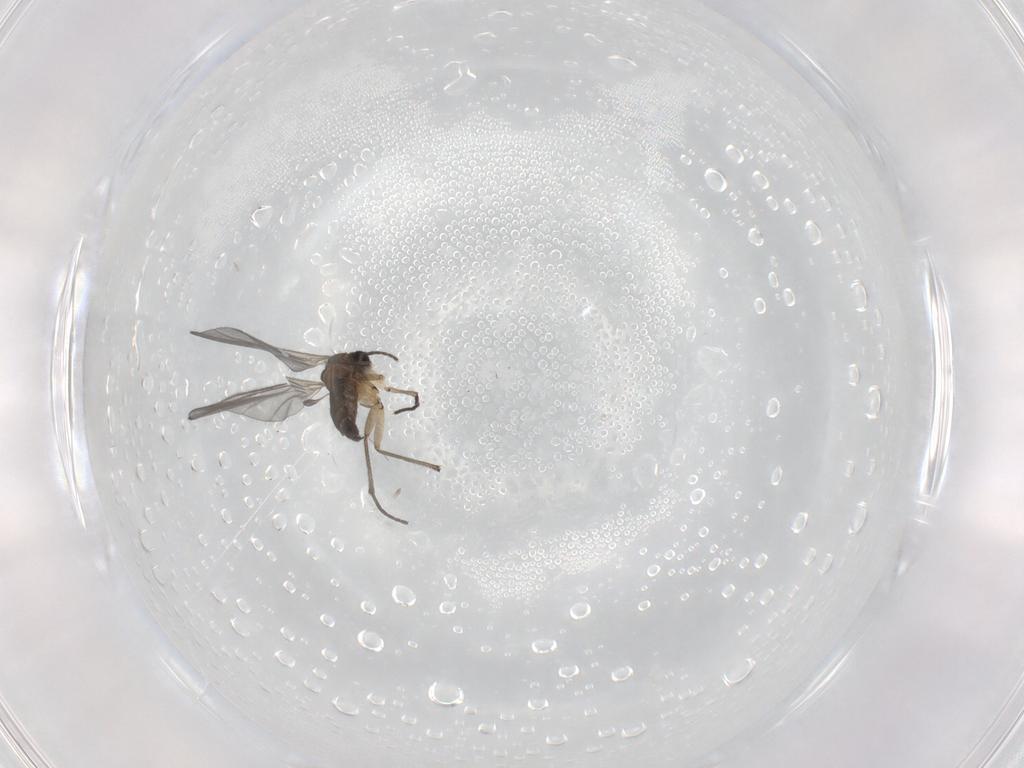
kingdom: Animalia
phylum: Arthropoda
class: Insecta
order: Diptera
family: Sciaridae
